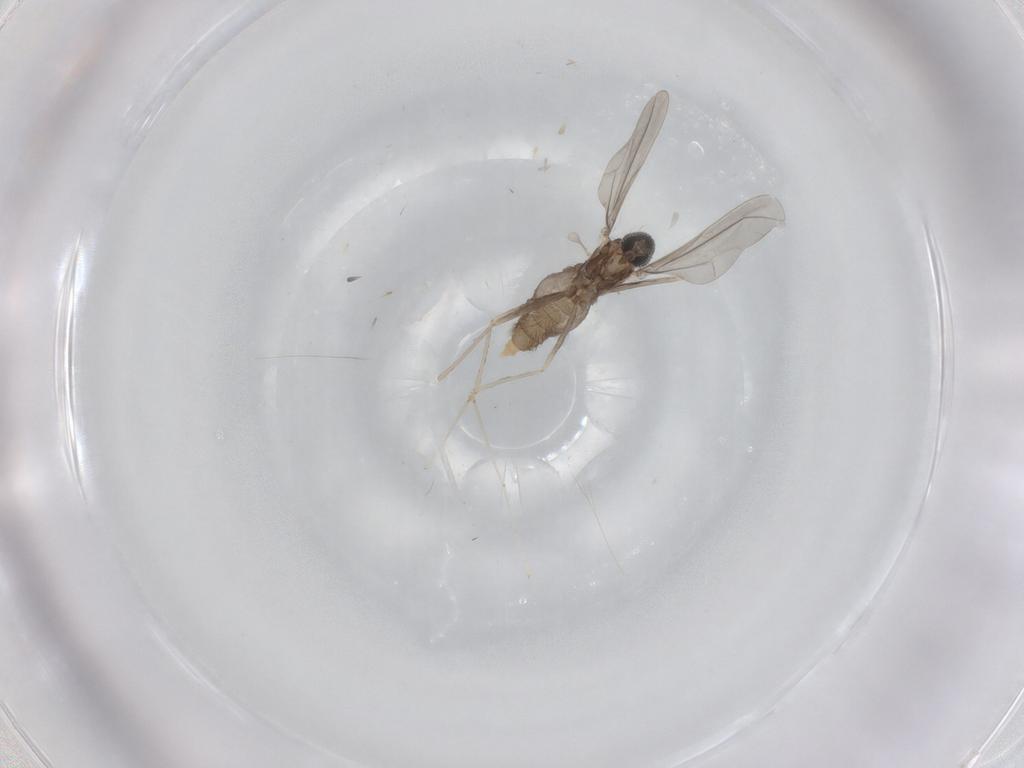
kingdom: Animalia
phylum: Arthropoda
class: Insecta
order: Diptera
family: Cecidomyiidae
